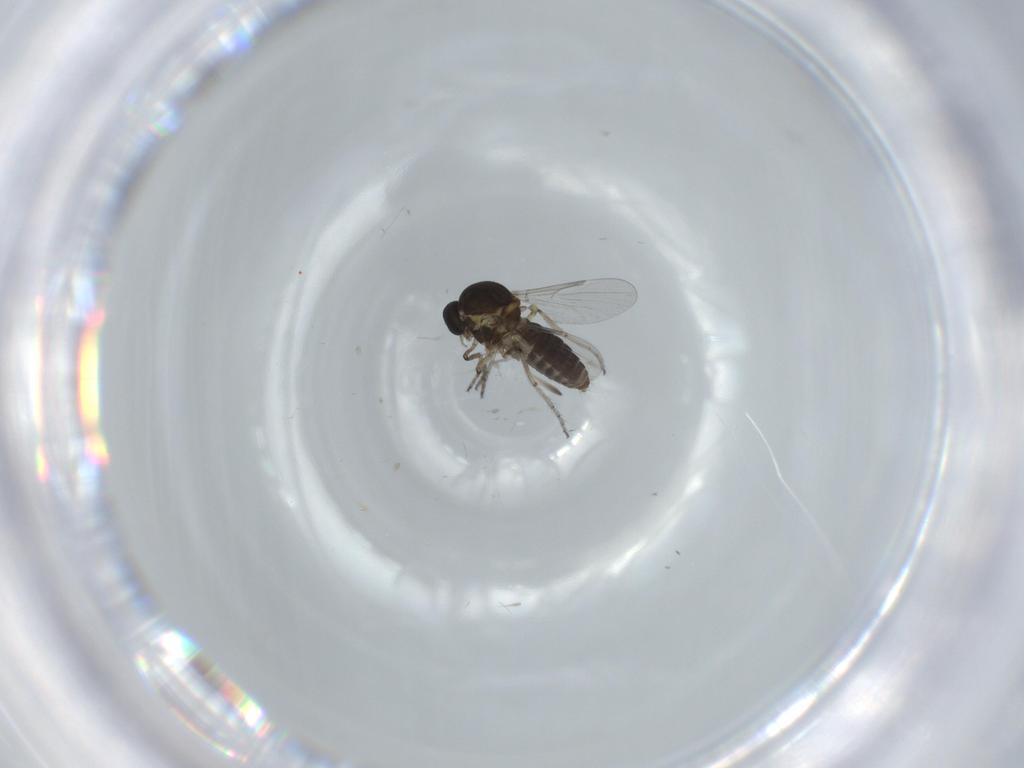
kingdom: Animalia
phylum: Arthropoda
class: Insecta
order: Diptera
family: Ceratopogonidae
